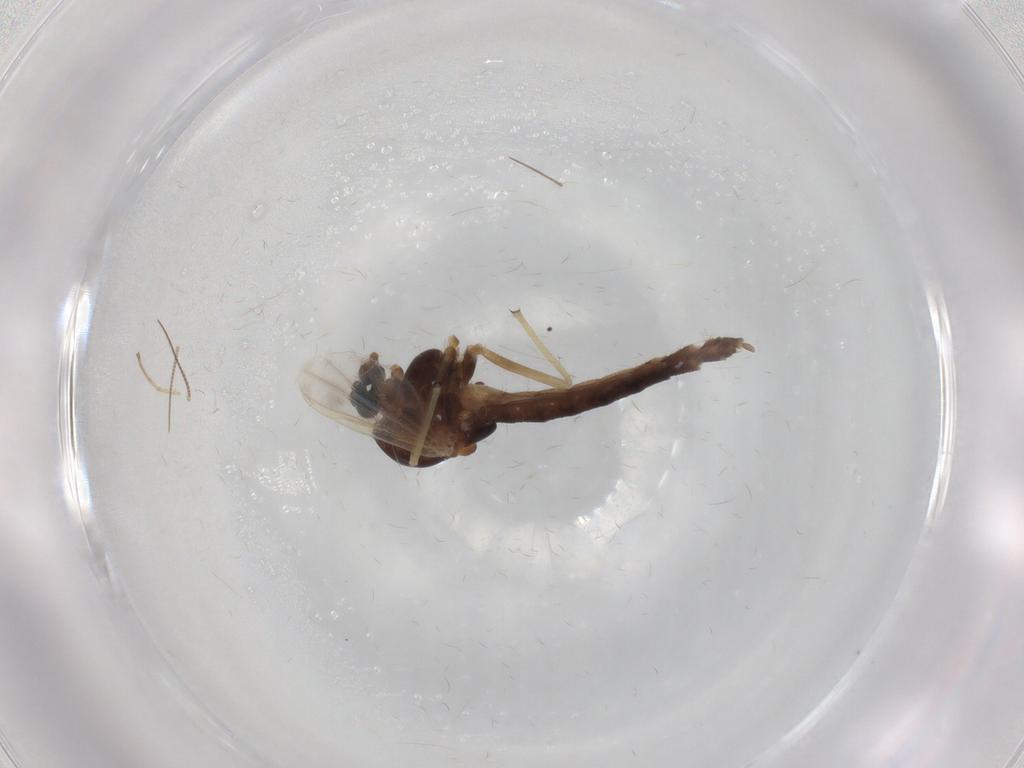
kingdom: Animalia
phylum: Arthropoda
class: Insecta
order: Diptera
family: Chironomidae
